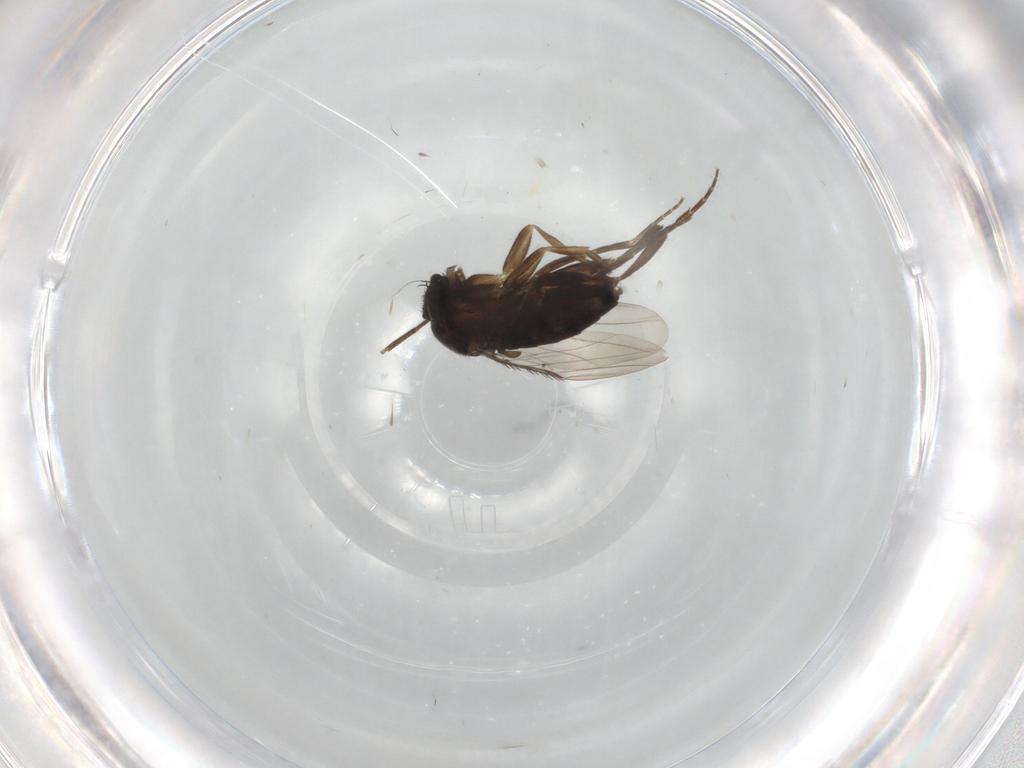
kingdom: Animalia
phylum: Arthropoda
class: Insecta
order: Diptera
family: Phoridae
